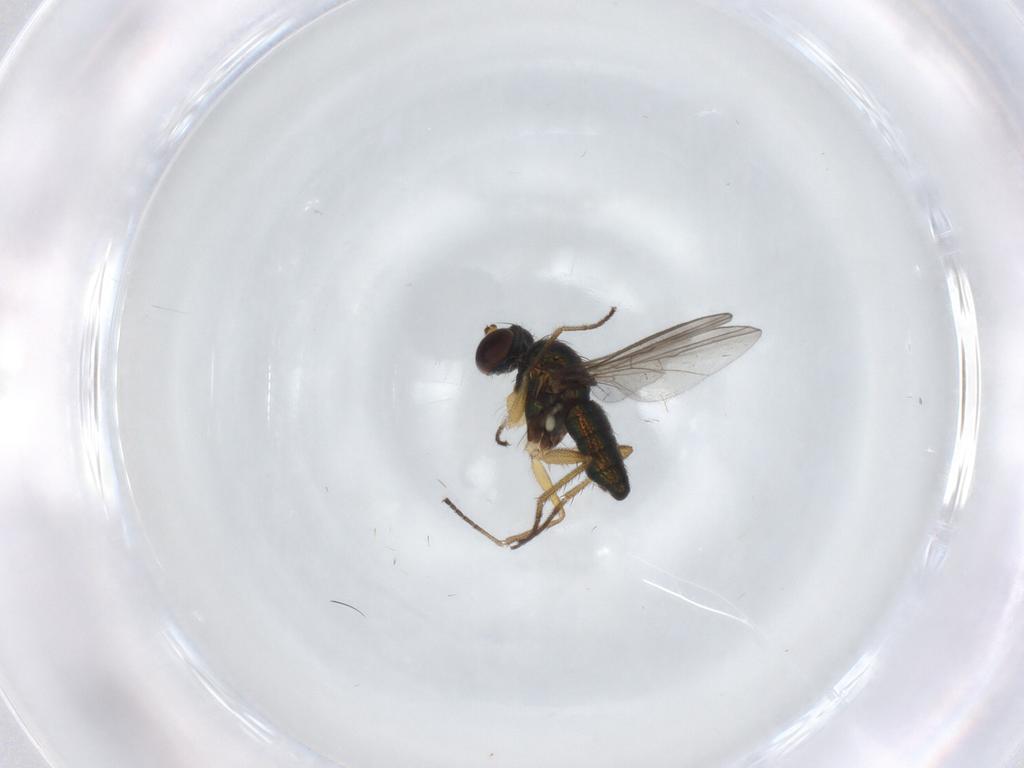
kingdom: Animalia
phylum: Arthropoda
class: Insecta
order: Diptera
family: Dolichopodidae
